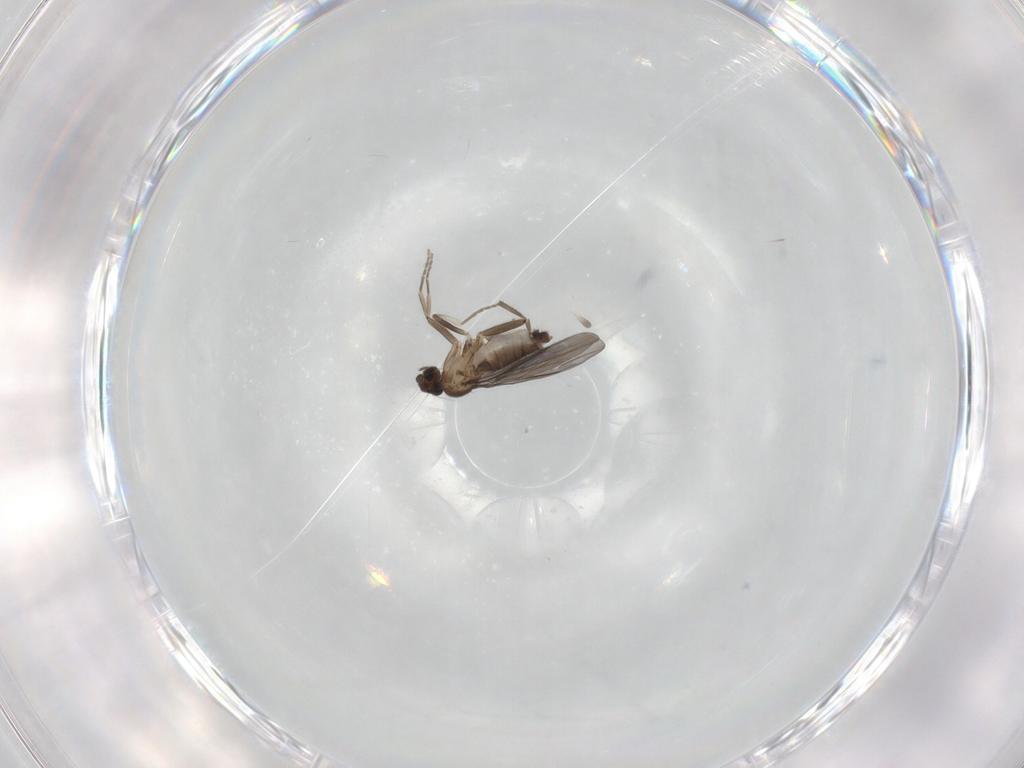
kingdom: Animalia
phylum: Arthropoda
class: Insecta
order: Diptera
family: Phoridae
